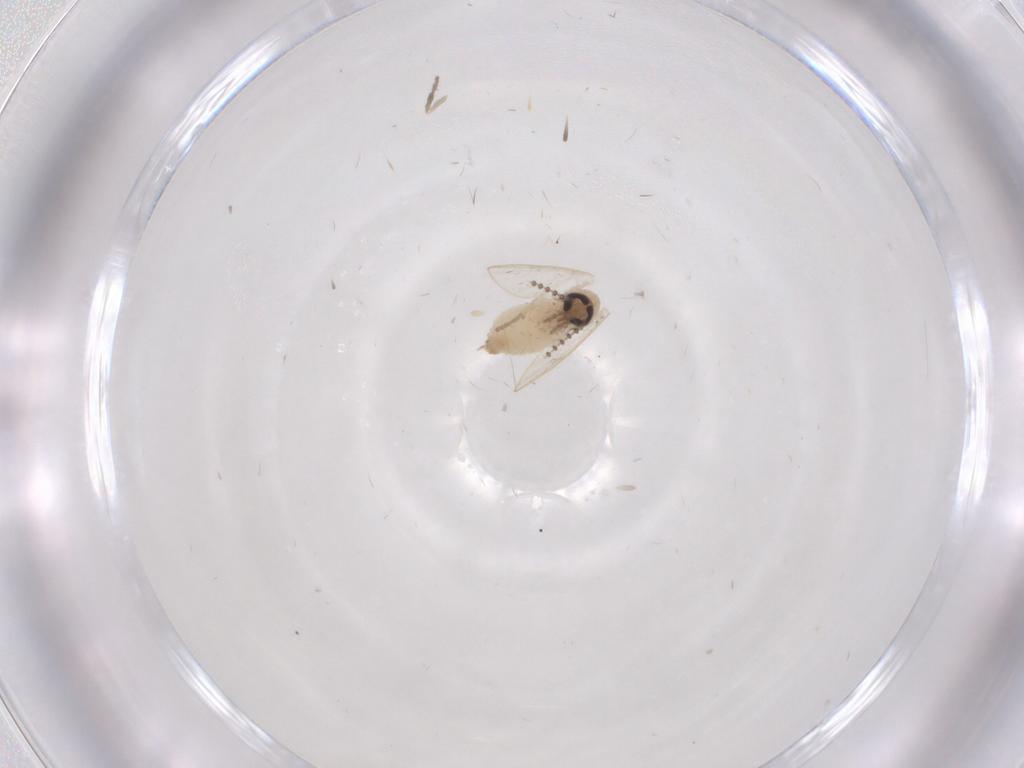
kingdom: Animalia
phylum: Arthropoda
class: Insecta
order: Diptera
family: Psychodidae
